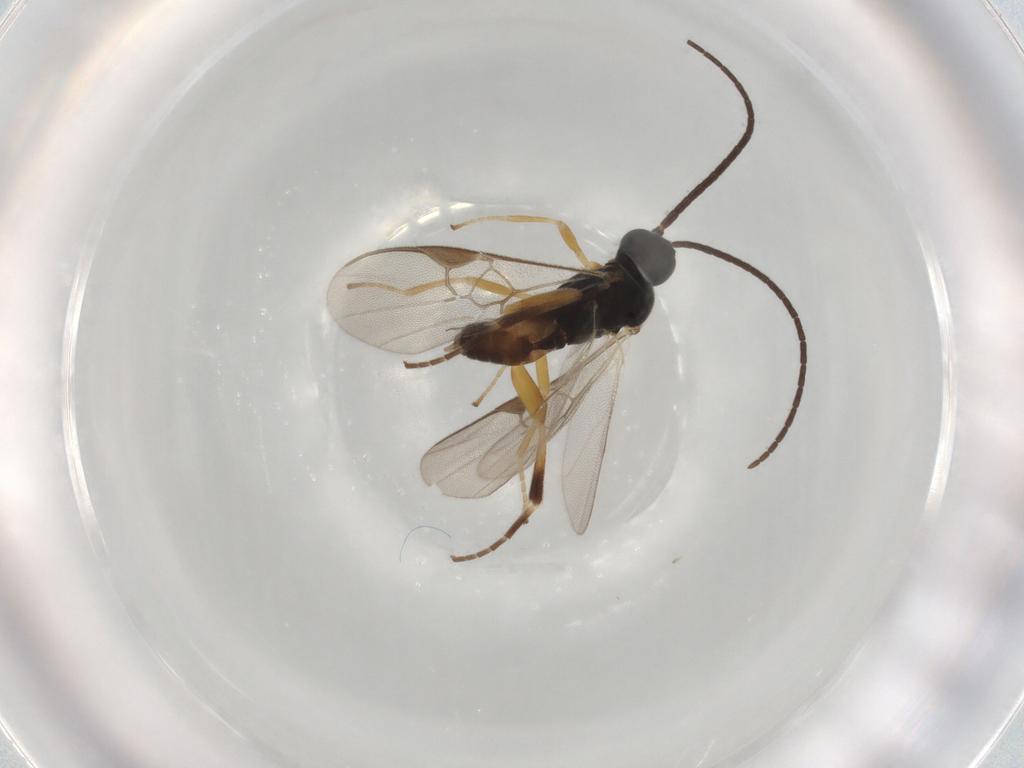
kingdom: Animalia
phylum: Arthropoda
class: Insecta
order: Hymenoptera
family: Braconidae
